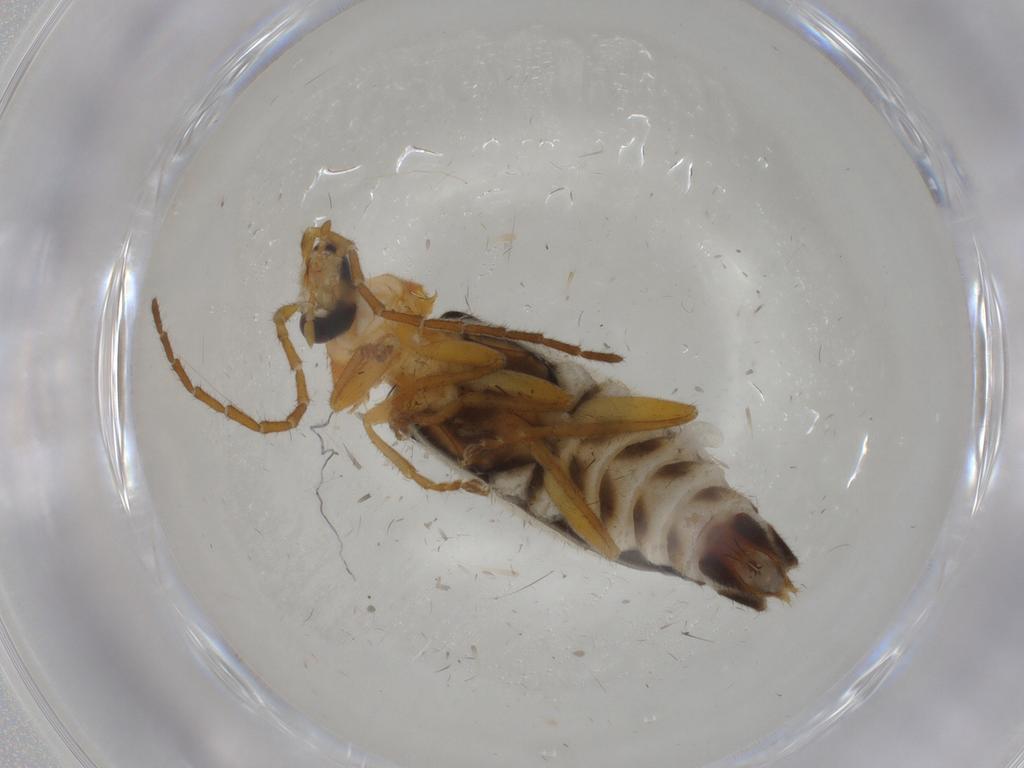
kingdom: Animalia
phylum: Arthropoda
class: Insecta
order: Coleoptera
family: Cantharidae
